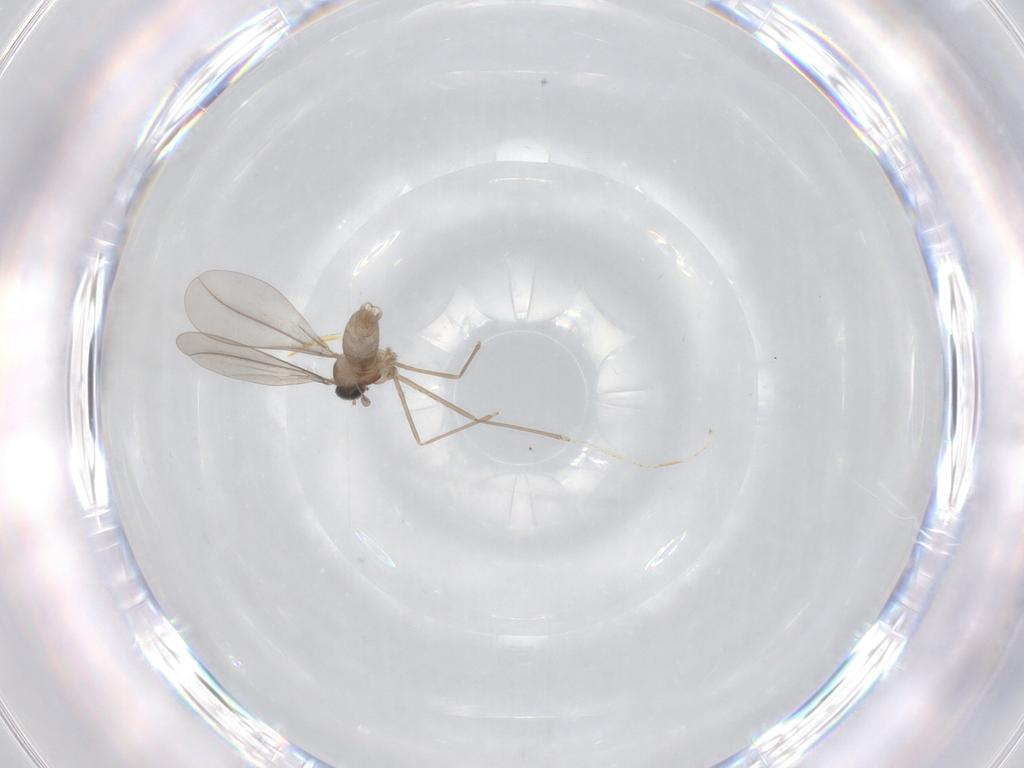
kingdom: Animalia
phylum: Arthropoda
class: Insecta
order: Diptera
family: Cecidomyiidae
